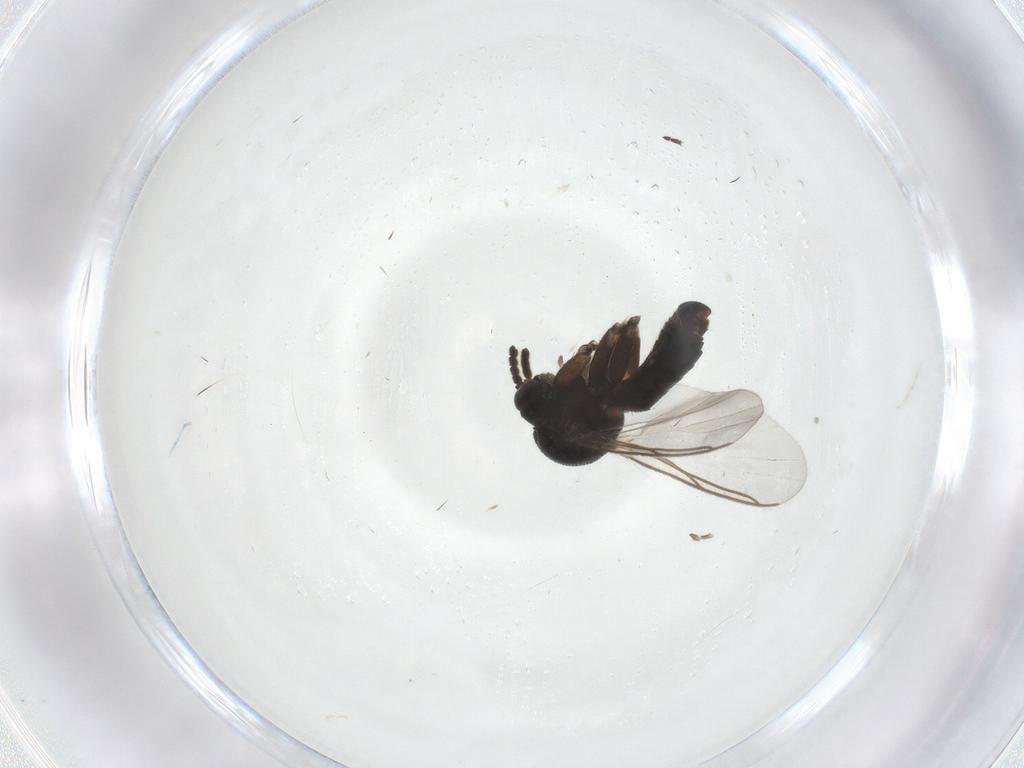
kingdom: Animalia
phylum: Arthropoda
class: Insecta
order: Diptera
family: Mycetophilidae
